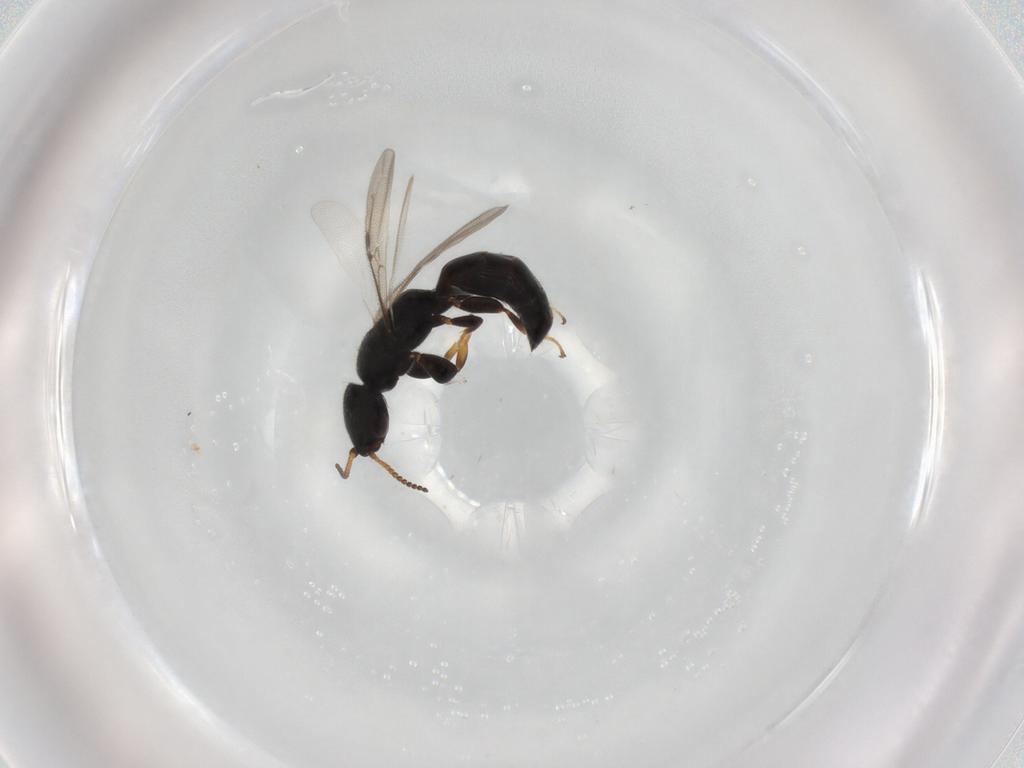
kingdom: Animalia
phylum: Arthropoda
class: Insecta
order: Hymenoptera
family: Bethylidae
